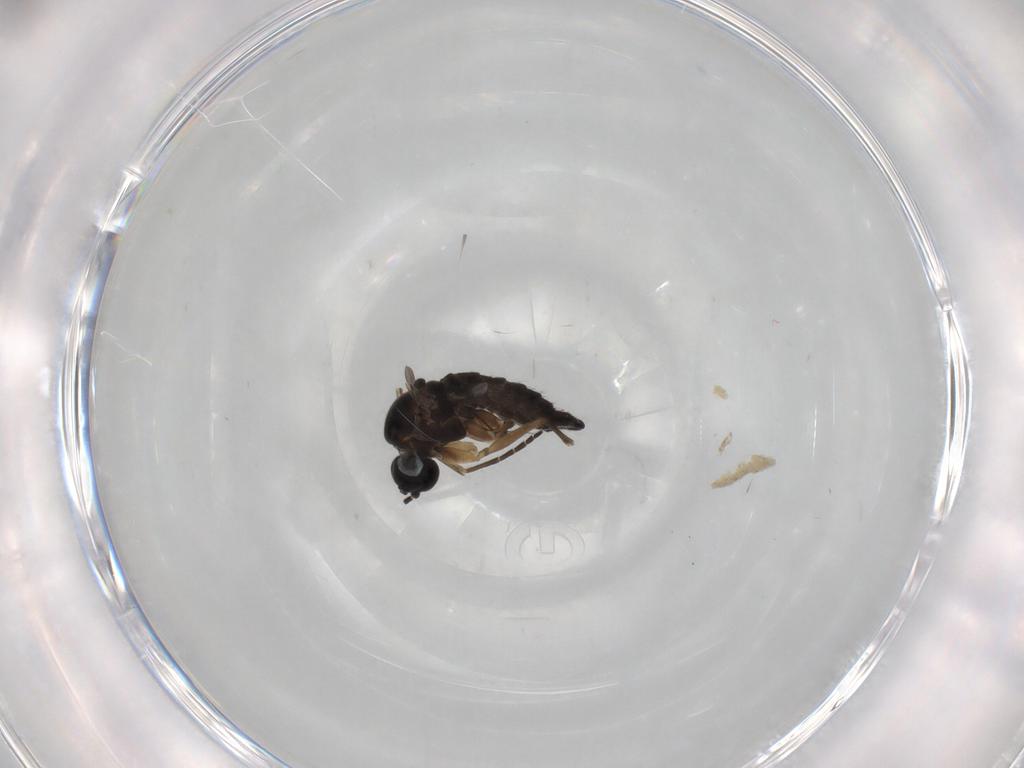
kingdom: Animalia
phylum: Arthropoda
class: Insecta
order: Diptera
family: Sciaridae
